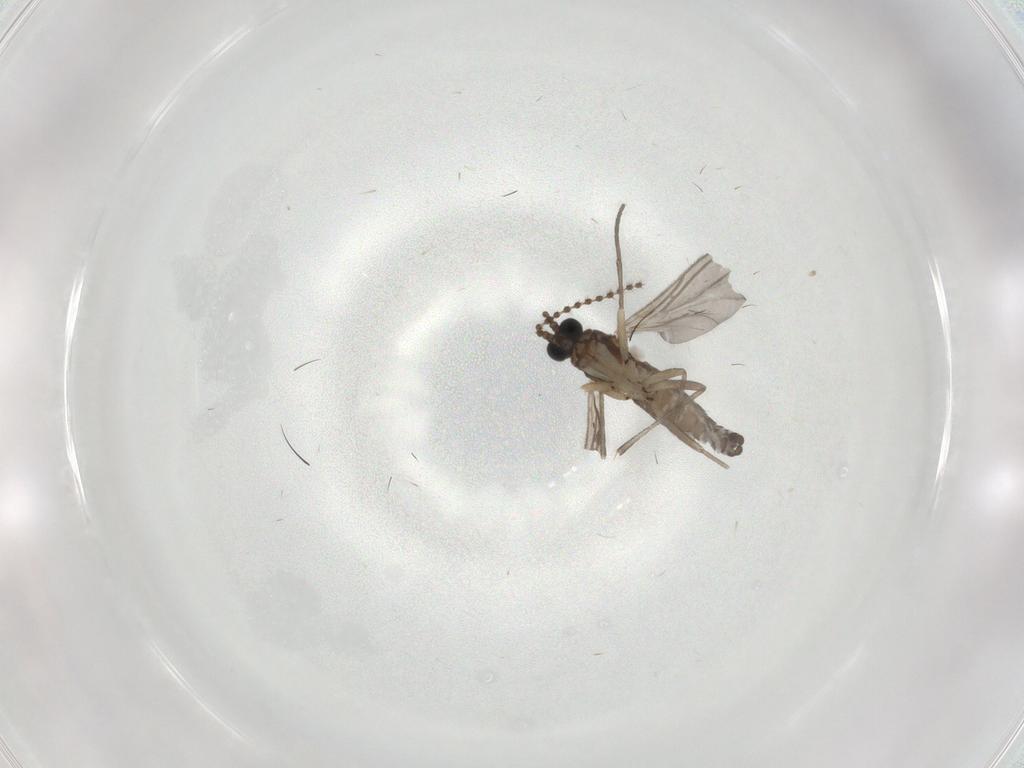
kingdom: Animalia
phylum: Arthropoda
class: Insecta
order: Diptera
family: Sciaridae
